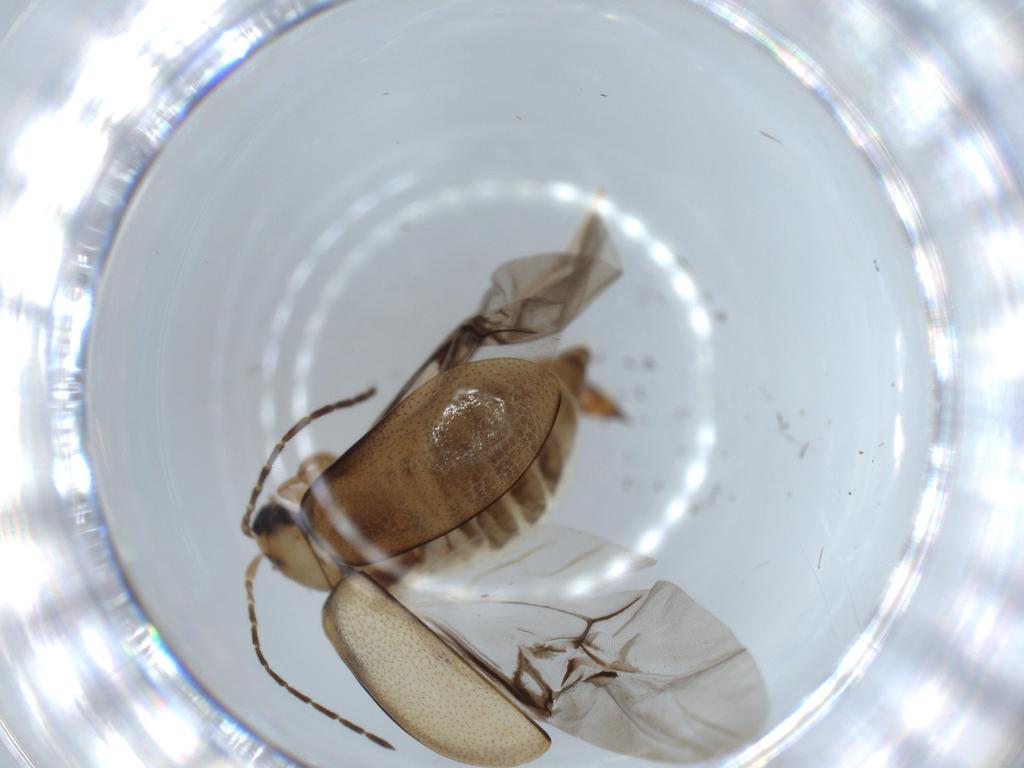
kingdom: Animalia
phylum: Arthropoda
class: Insecta
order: Coleoptera
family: Chrysomelidae
